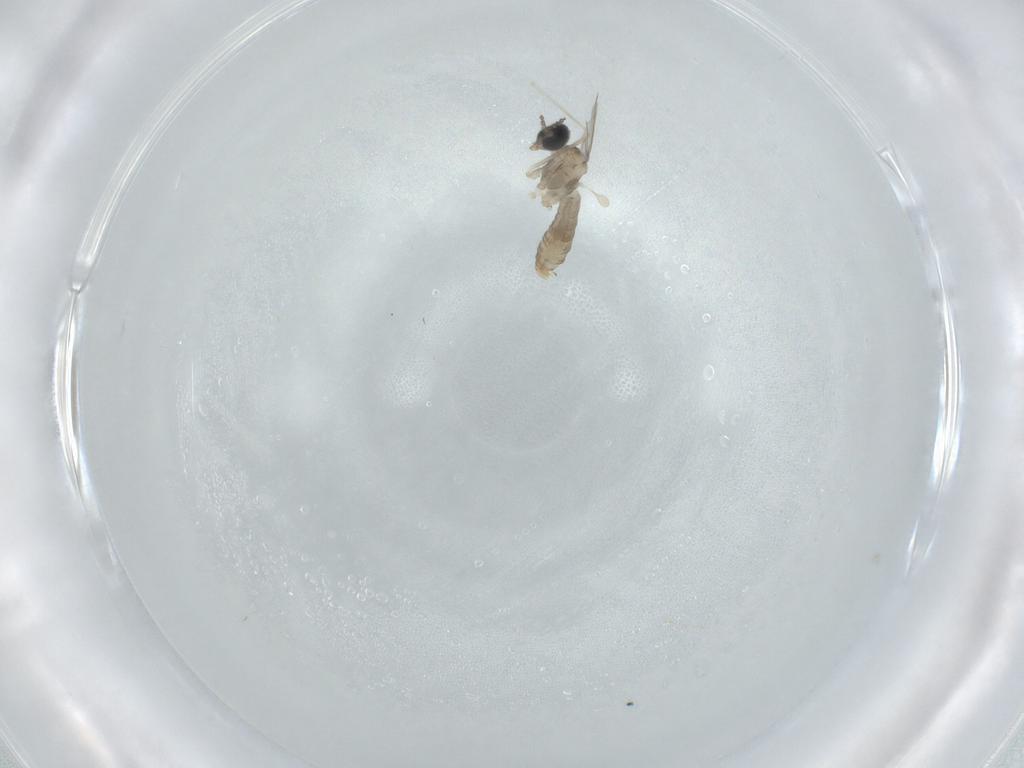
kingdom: Animalia
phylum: Arthropoda
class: Insecta
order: Diptera
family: Cecidomyiidae
